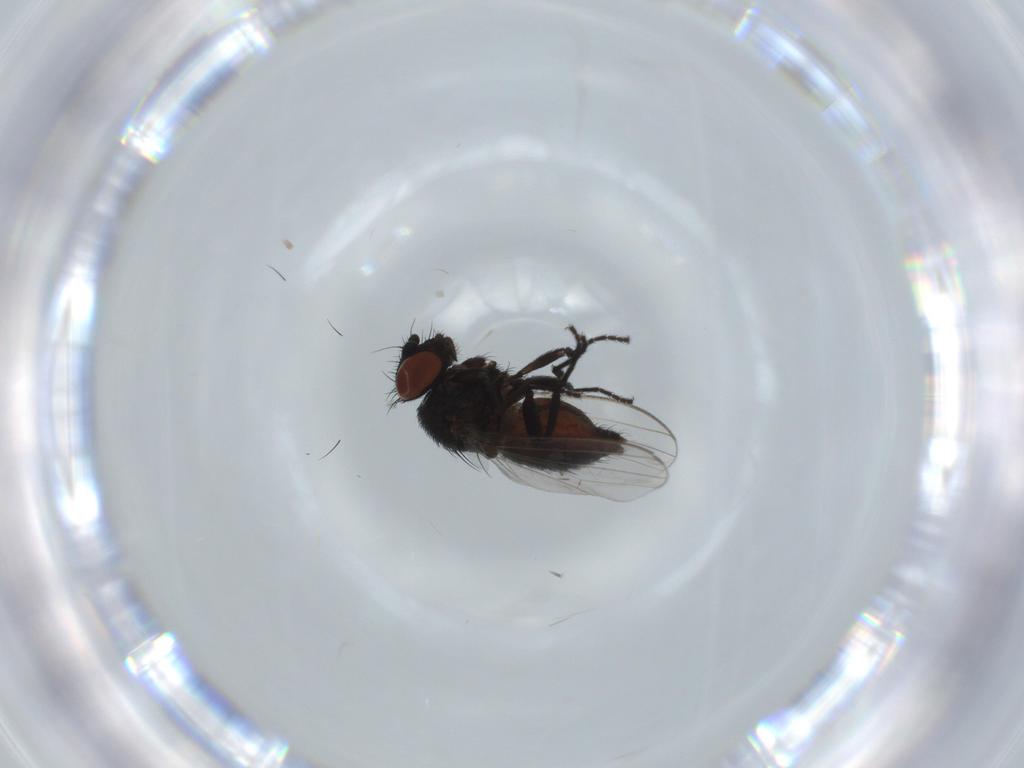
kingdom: Animalia
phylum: Arthropoda
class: Insecta
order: Diptera
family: Milichiidae
